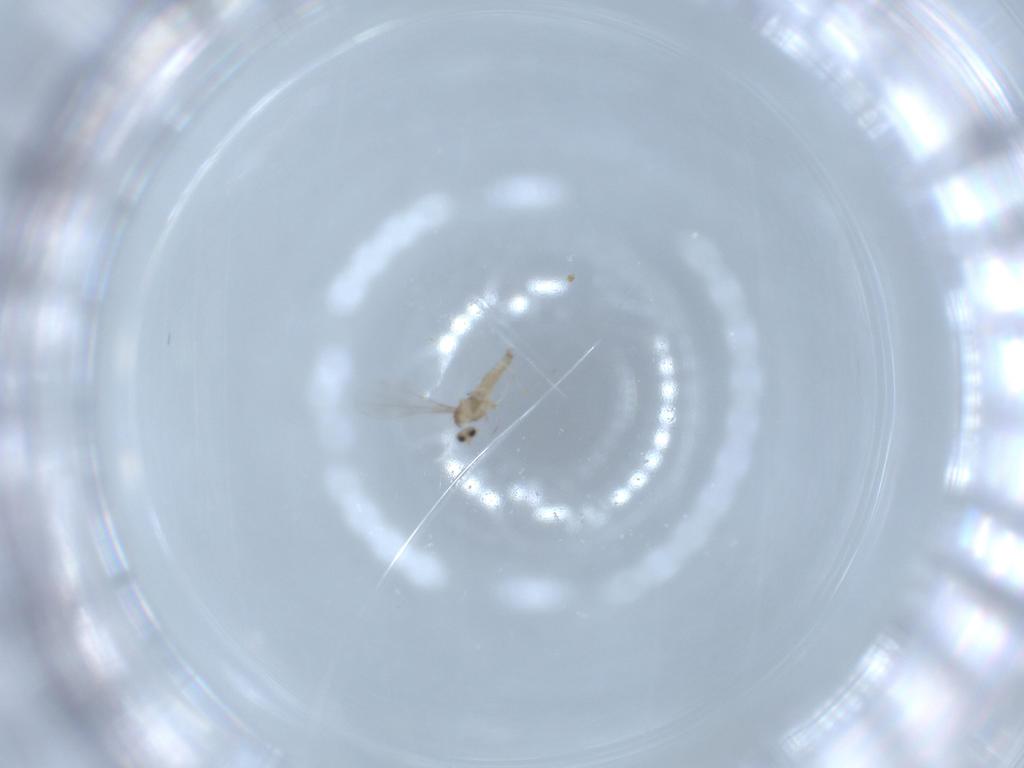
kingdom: Animalia
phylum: Arthropoda
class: Insecta
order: Diptera
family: Cecidomyiidae
